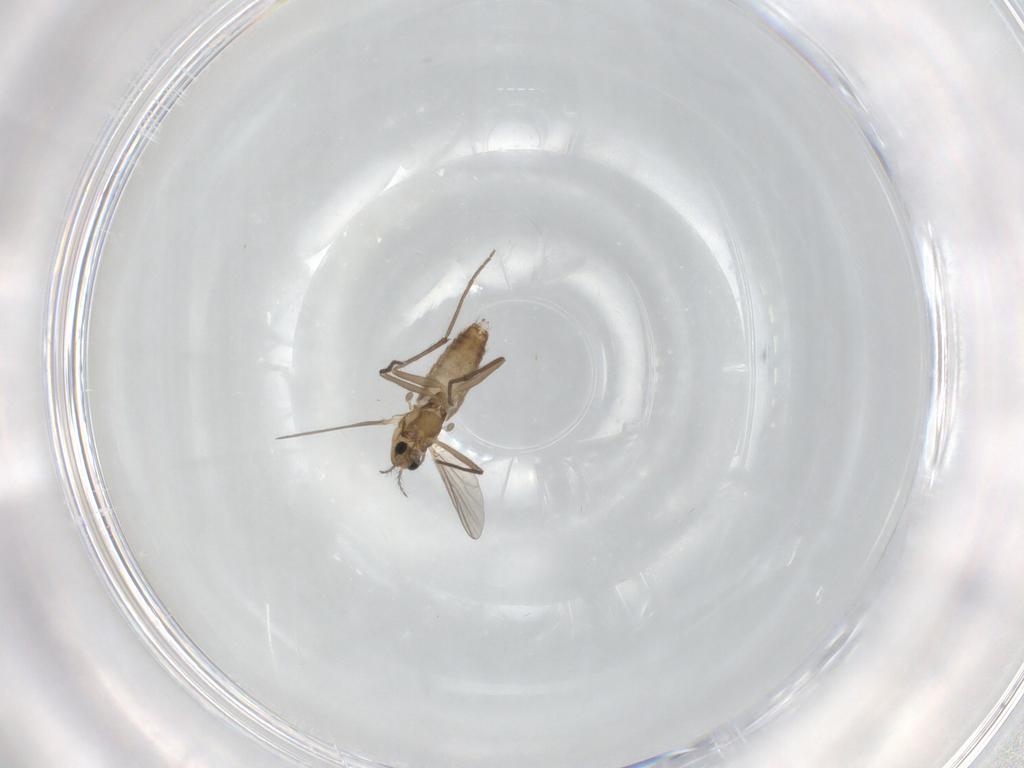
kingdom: Animalia
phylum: Arthropoda
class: Insecta
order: Diptera
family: Chironomidae
